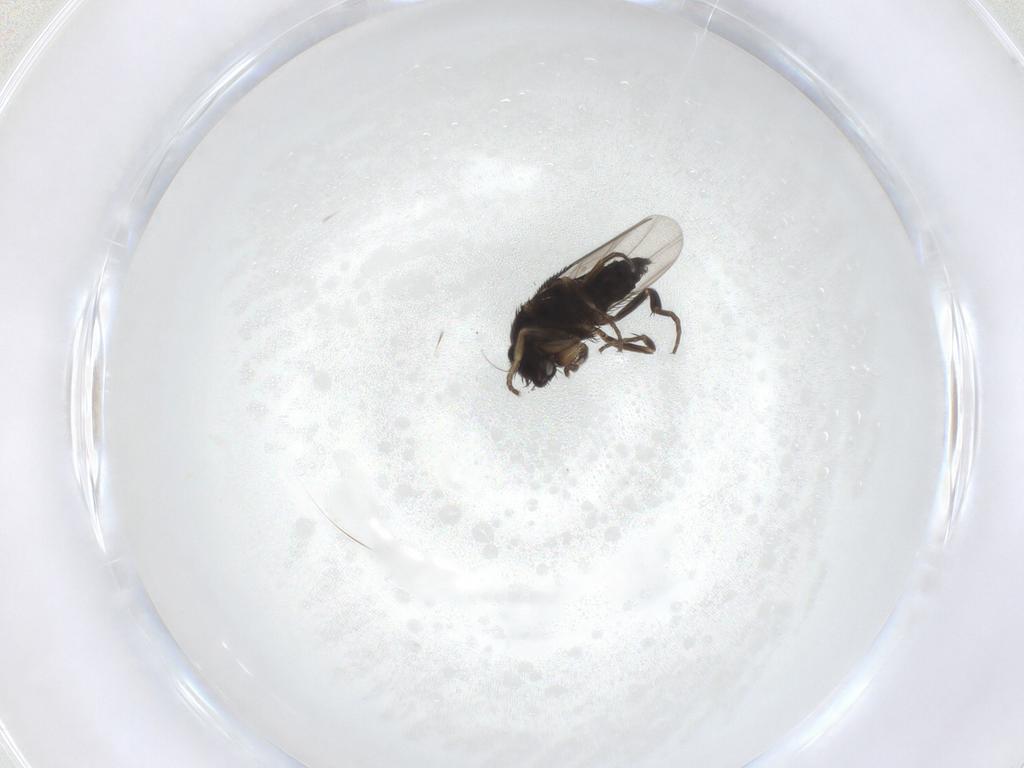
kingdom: Animalia
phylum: Arthropoda
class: Insecta
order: Diptera
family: Phoridae
